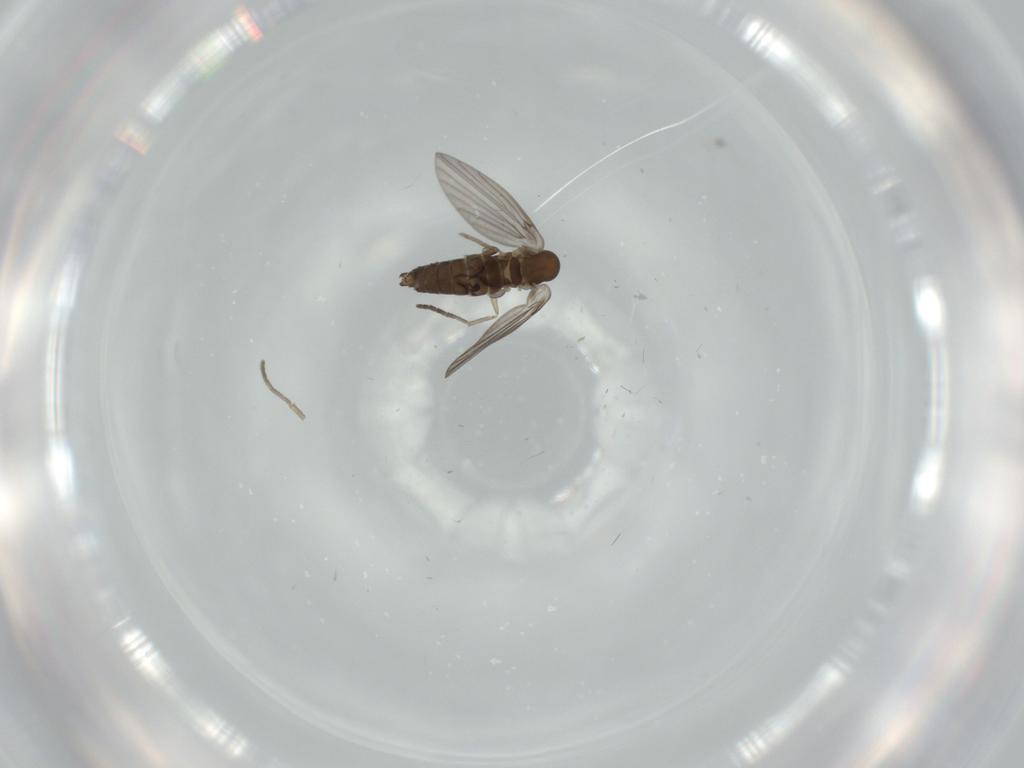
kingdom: Animalia
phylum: Arthropoda
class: Insecta
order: Diptera
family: Psychodidae
